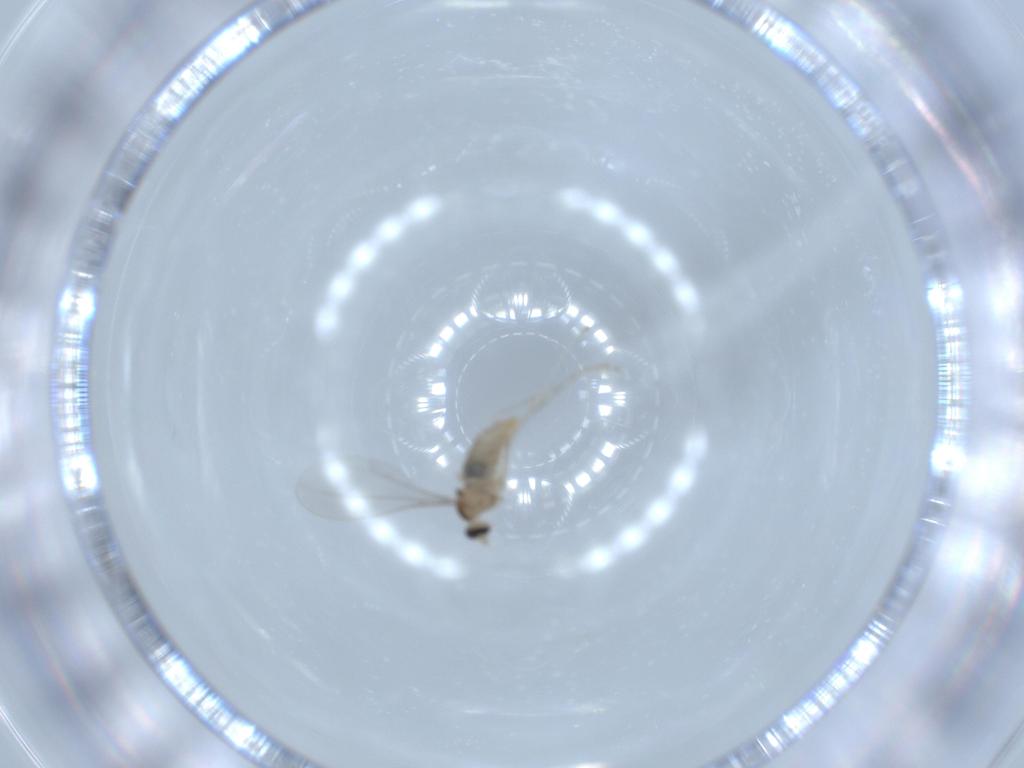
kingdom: Animalia
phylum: Arthropoda
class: Insecta
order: Diptera
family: Cecidomyiidae
